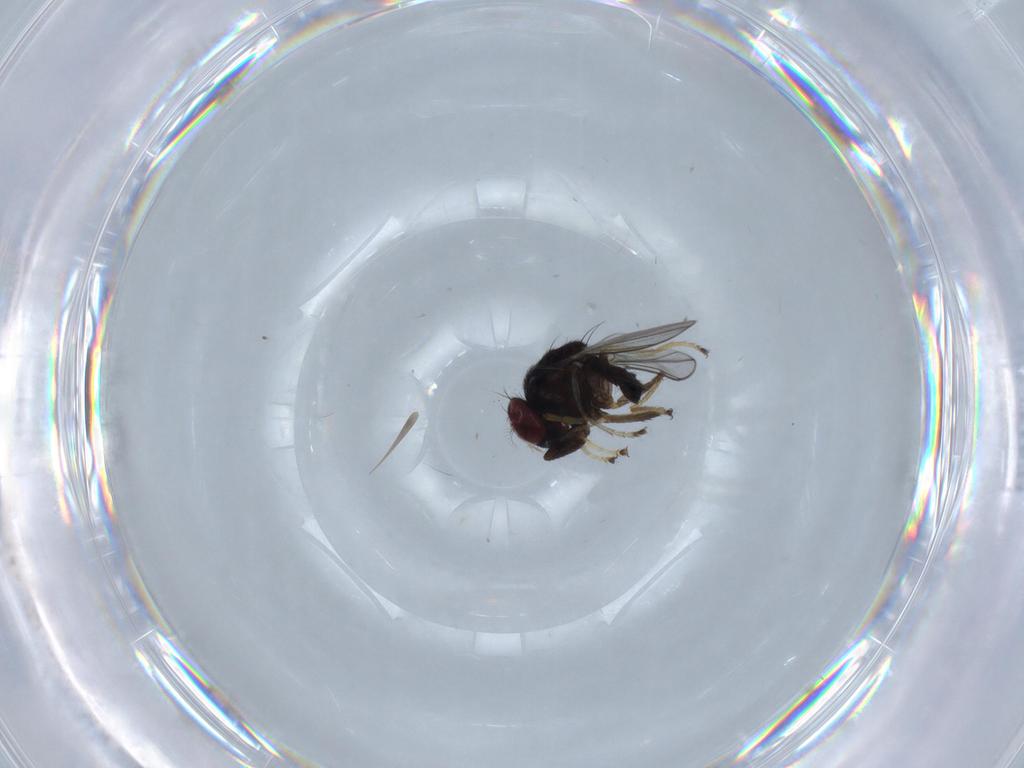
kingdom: Animalia
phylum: Arthropoda
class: Insecta
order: Diptera
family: Ephydridae
